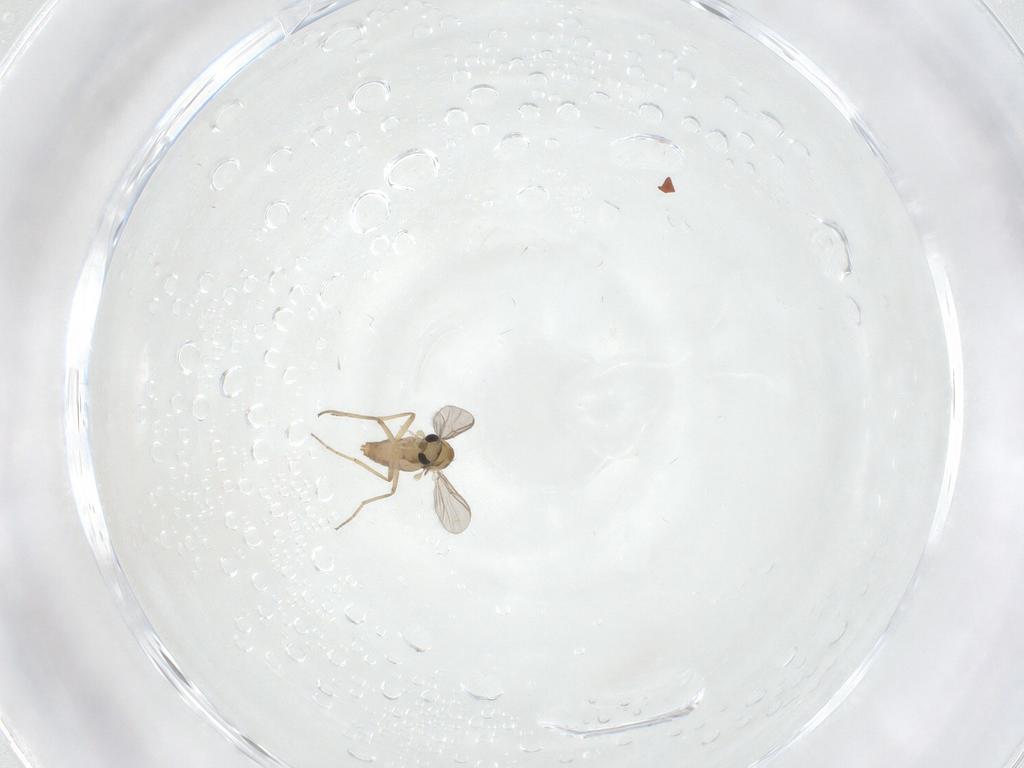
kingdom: Animalia
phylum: Arthropoda
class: Insecta
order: Diptera
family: Chironomidae
